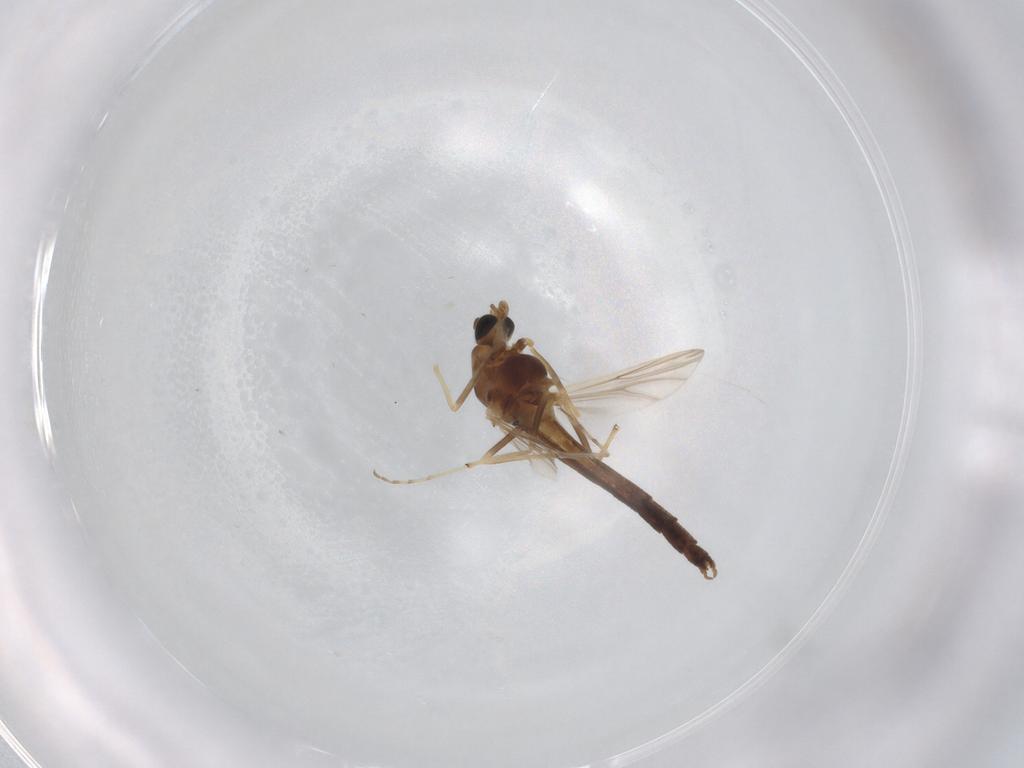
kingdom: Animalia
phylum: Arthropoda
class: Insecta
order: Diptera
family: Chironomidae
